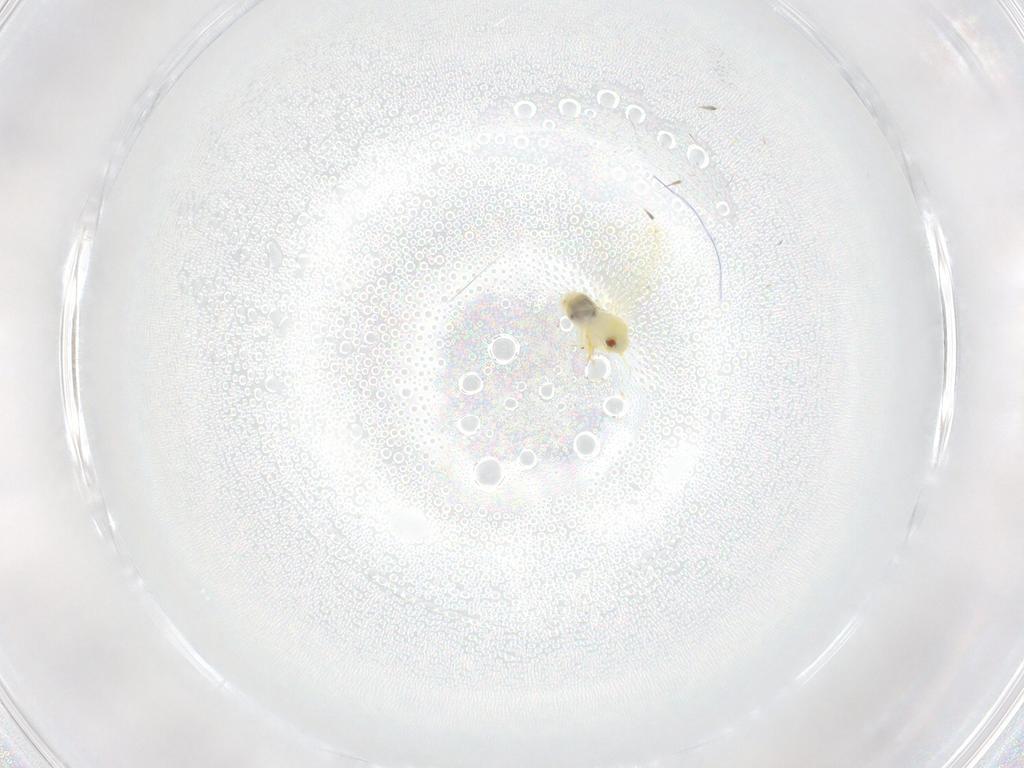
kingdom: Animalia
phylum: Arthropoda
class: Insecta
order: Hemiptera
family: Aleyrodidae
